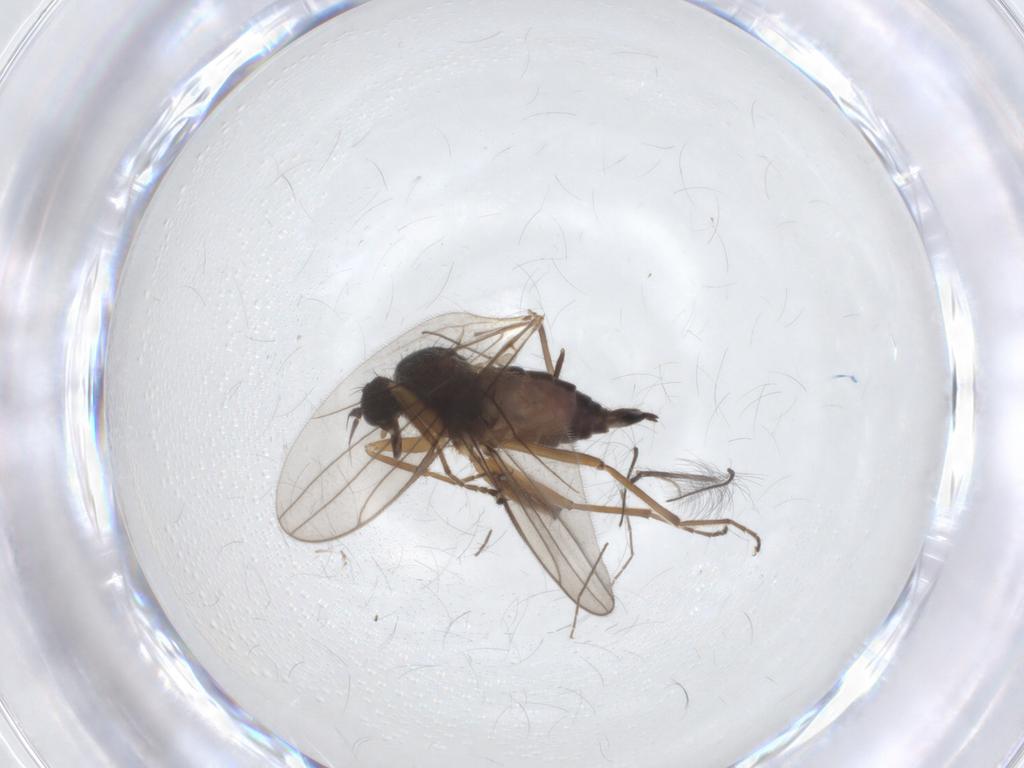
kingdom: Animalia
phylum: Arthropoda
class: Insecta
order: Diptera
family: Hybotidae
